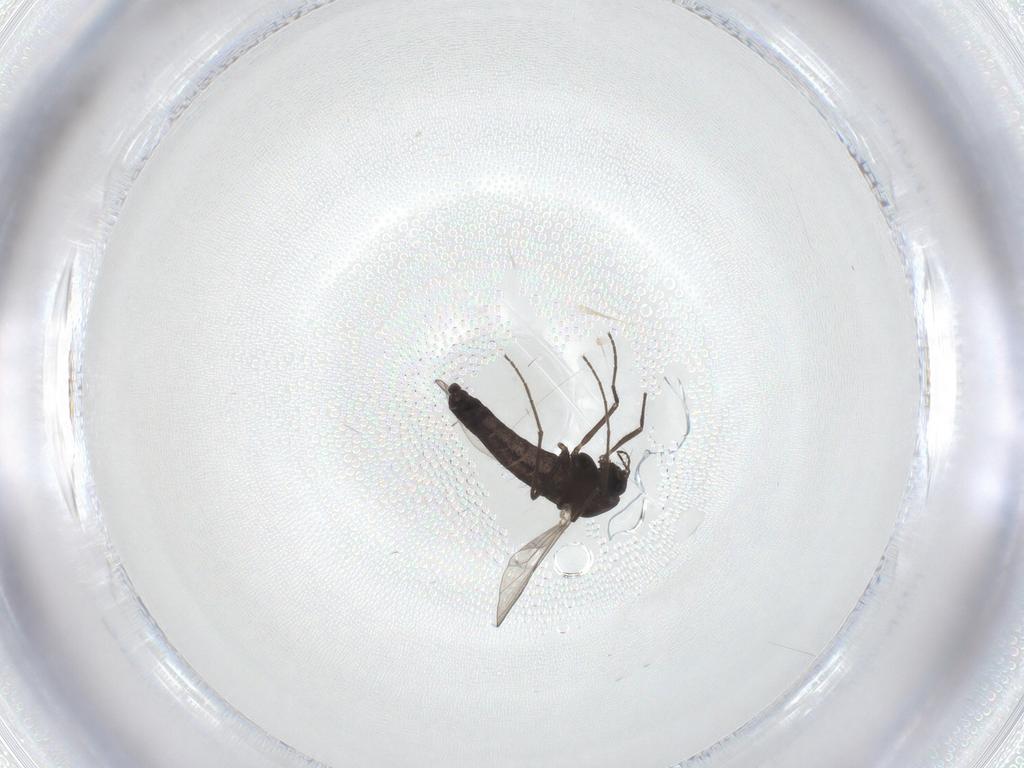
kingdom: Animalia
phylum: Arthropoda
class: Insecta
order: Diptera
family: Chironomidae
